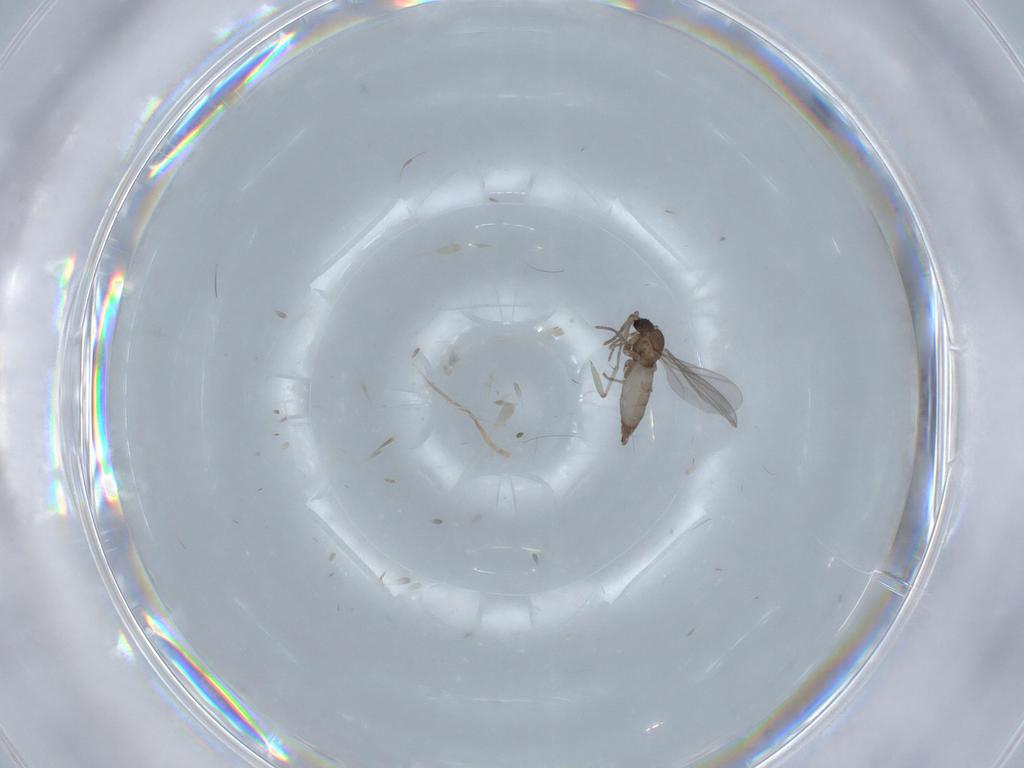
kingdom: Animalia
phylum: Arthropoda
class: Insecta
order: Diptera
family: Sciaridae
